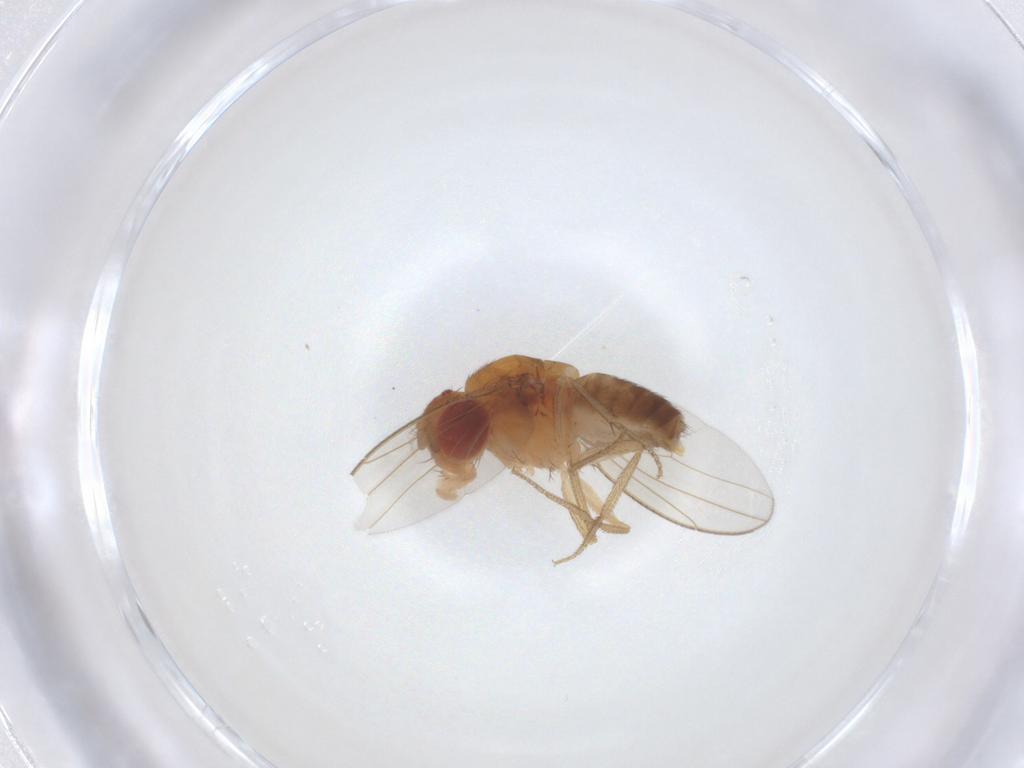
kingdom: Animalia
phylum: Arthropoda
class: Insecta
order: Diptera
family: Drosophilidae
